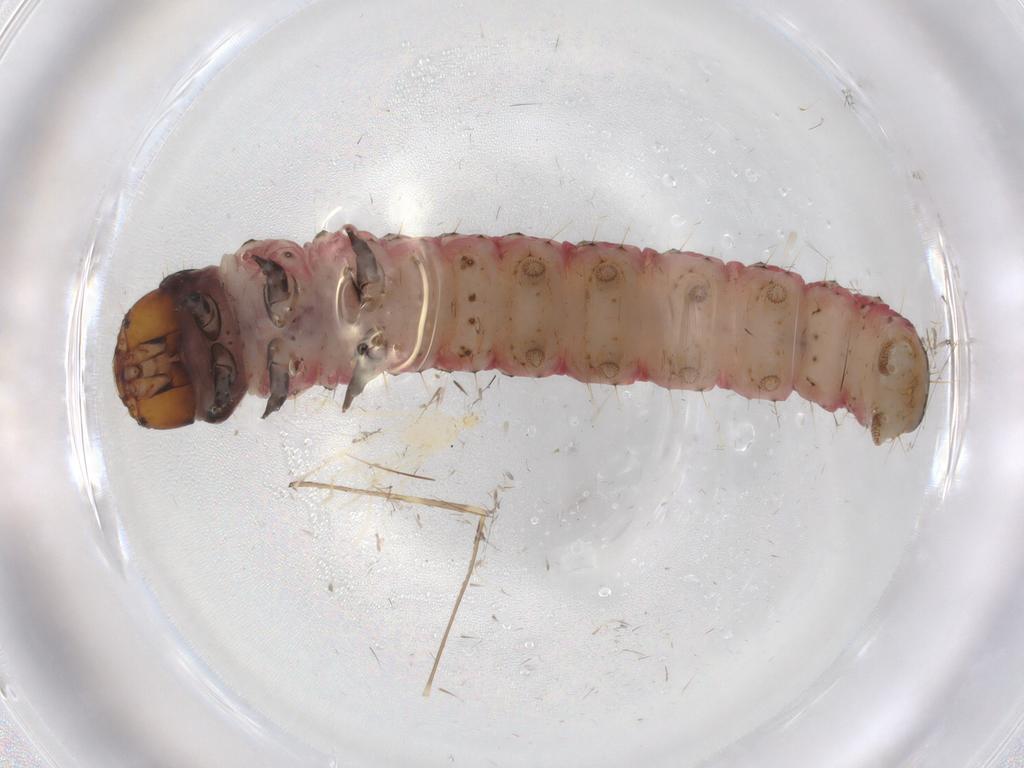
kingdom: Animalia
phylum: Arthropoda
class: Insecta
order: Lepidoptera
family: Gelechiidae
